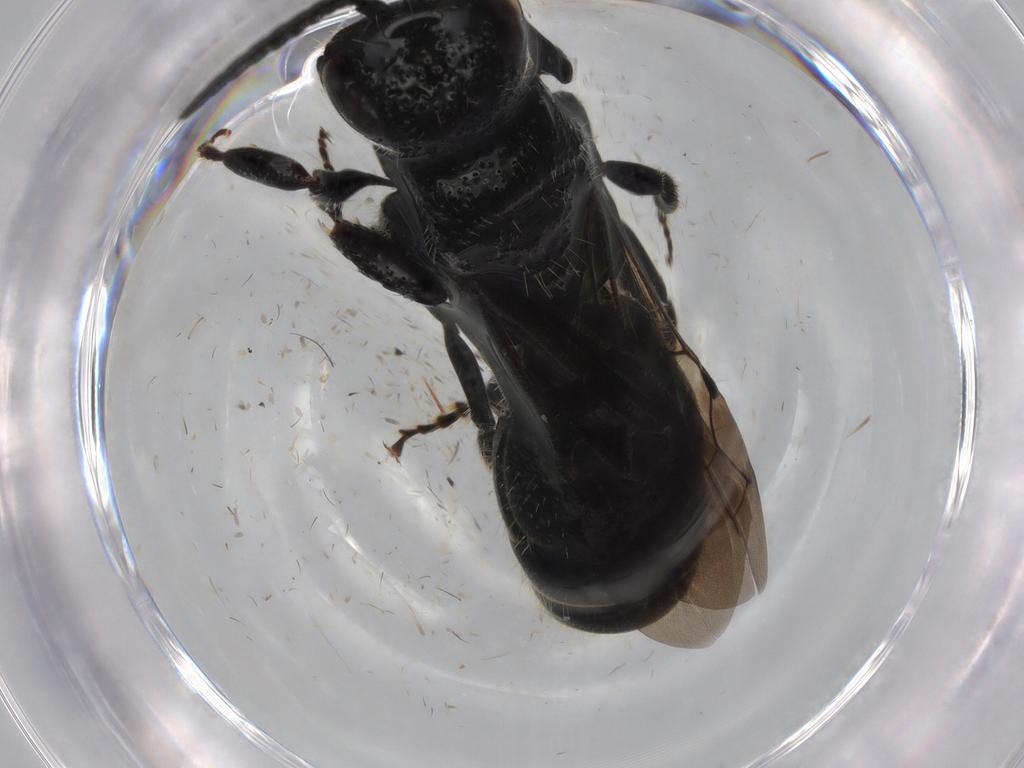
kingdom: Animalia
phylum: Arthropoda
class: Insecta
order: Hymenoptera
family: Tiphiidae
